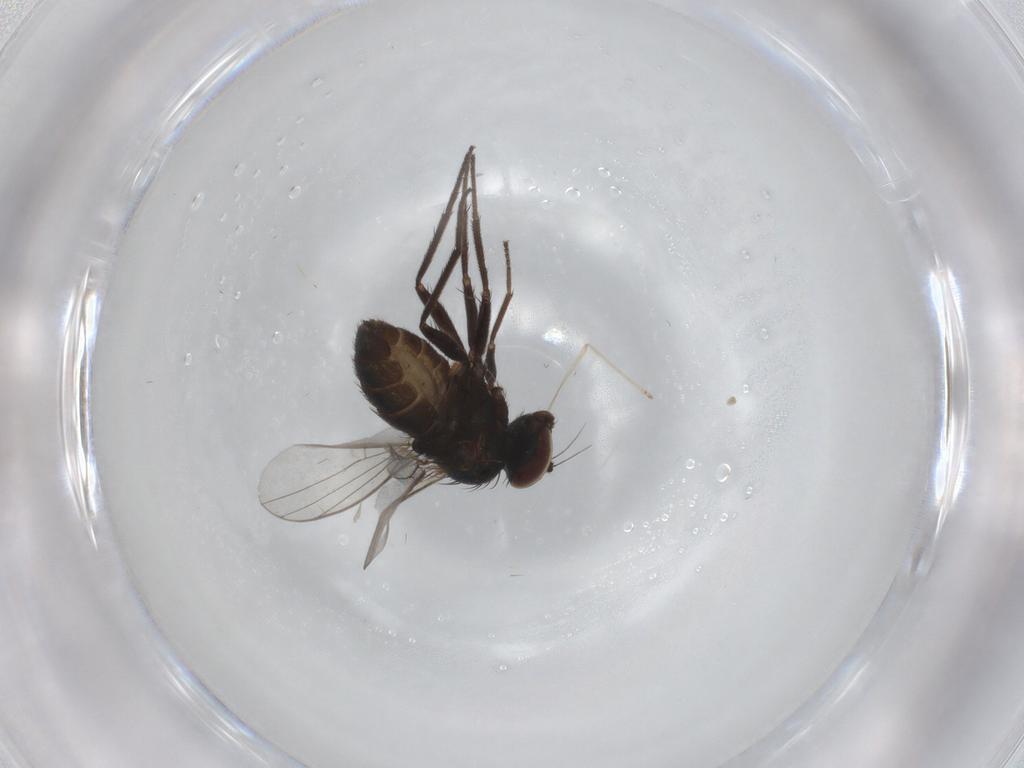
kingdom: Animalia
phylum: Arthropoda
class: Insecta
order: Diptera
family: Dolichopodidae
